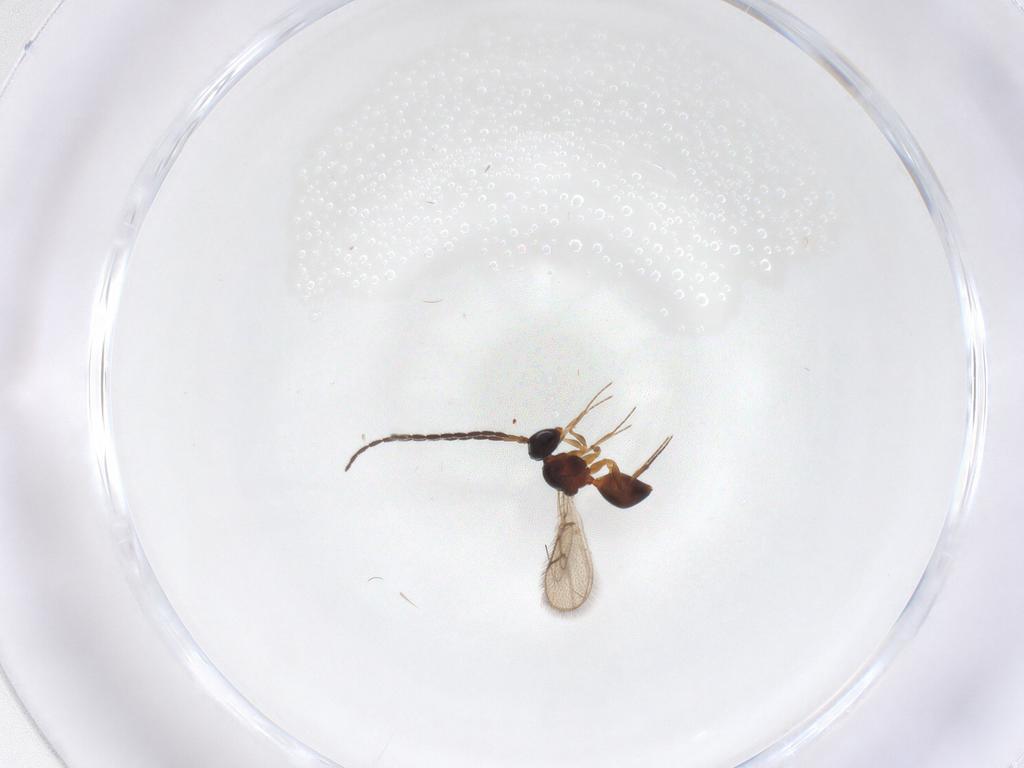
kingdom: Animalia
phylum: Arthropoda
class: Insecta
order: Hymenoptera
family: Figitidae
